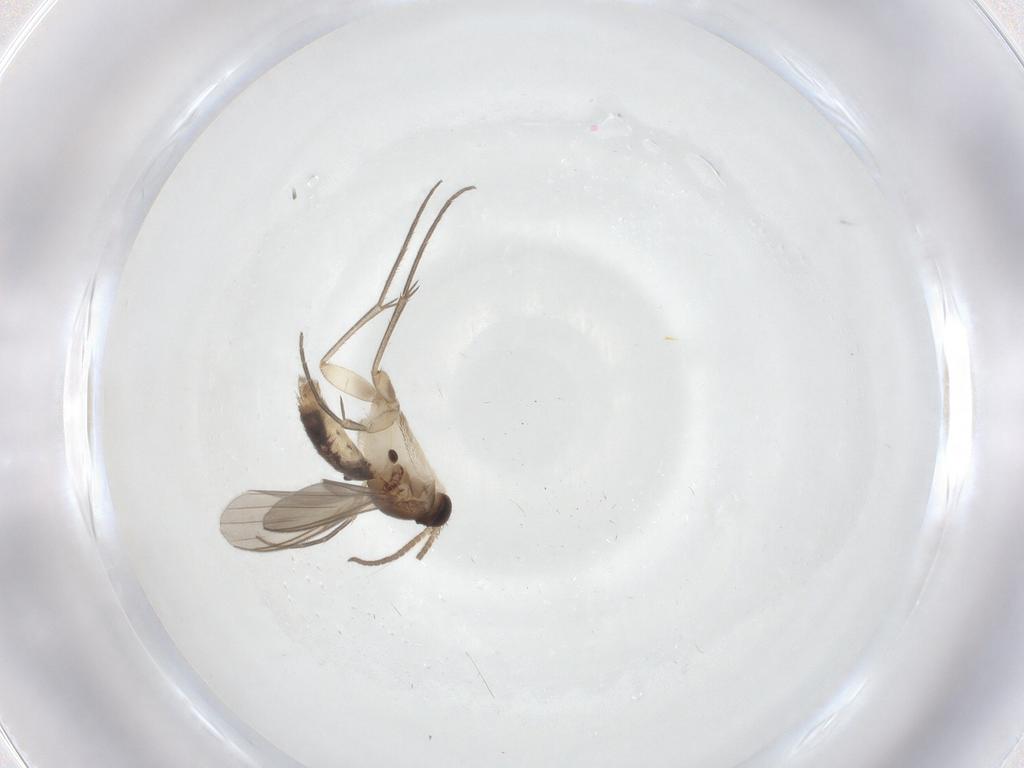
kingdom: Animalia
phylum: Arthropoda
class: Insecta
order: Diptera
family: Mycetophilidae
